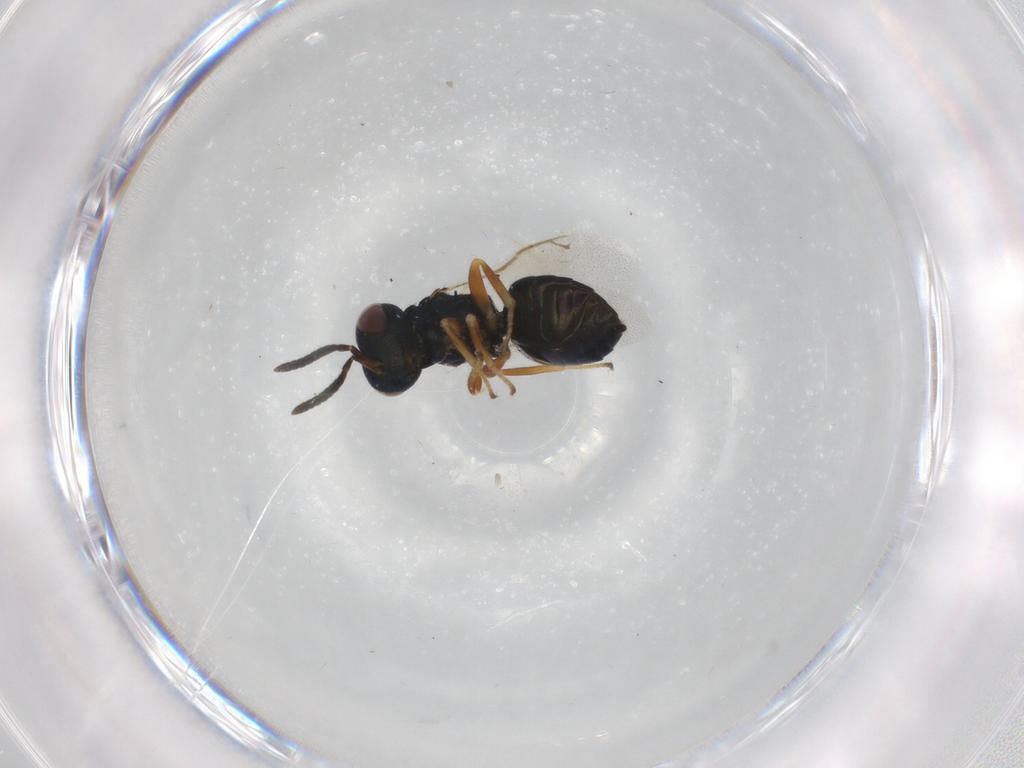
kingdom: Animalia
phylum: Arthropoda
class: Insecta
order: Hymenoptera
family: Pteromalidae
